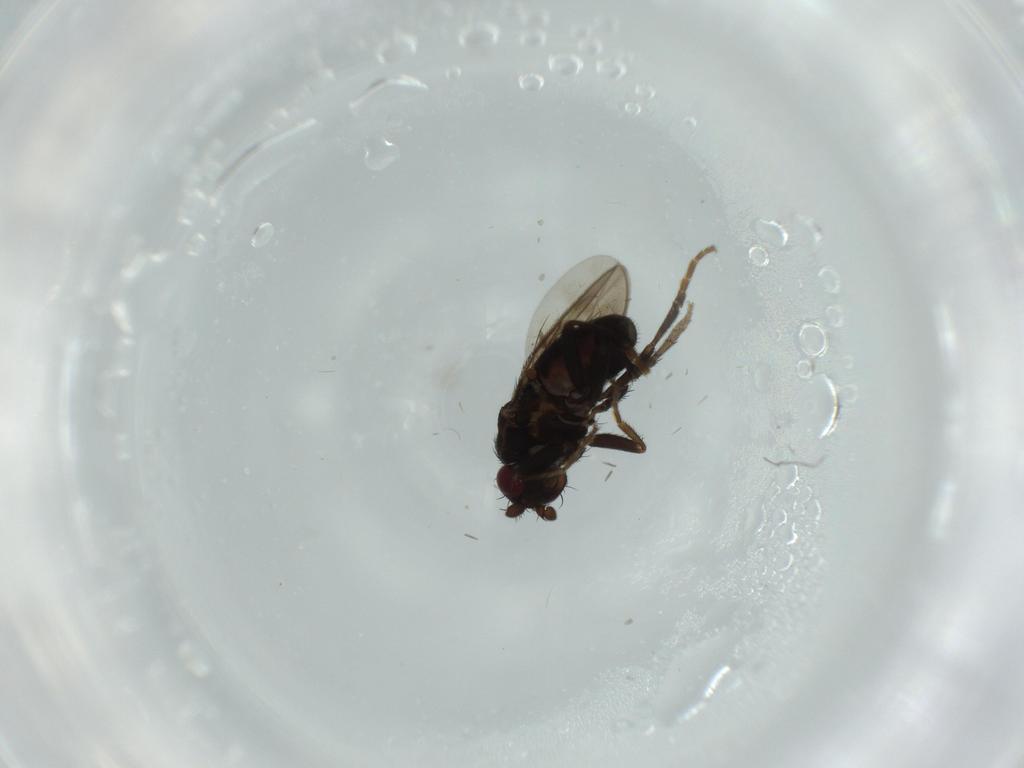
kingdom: Animalia
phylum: Arthropoda
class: Insecta
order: Diptera
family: Sphaeroceridae
